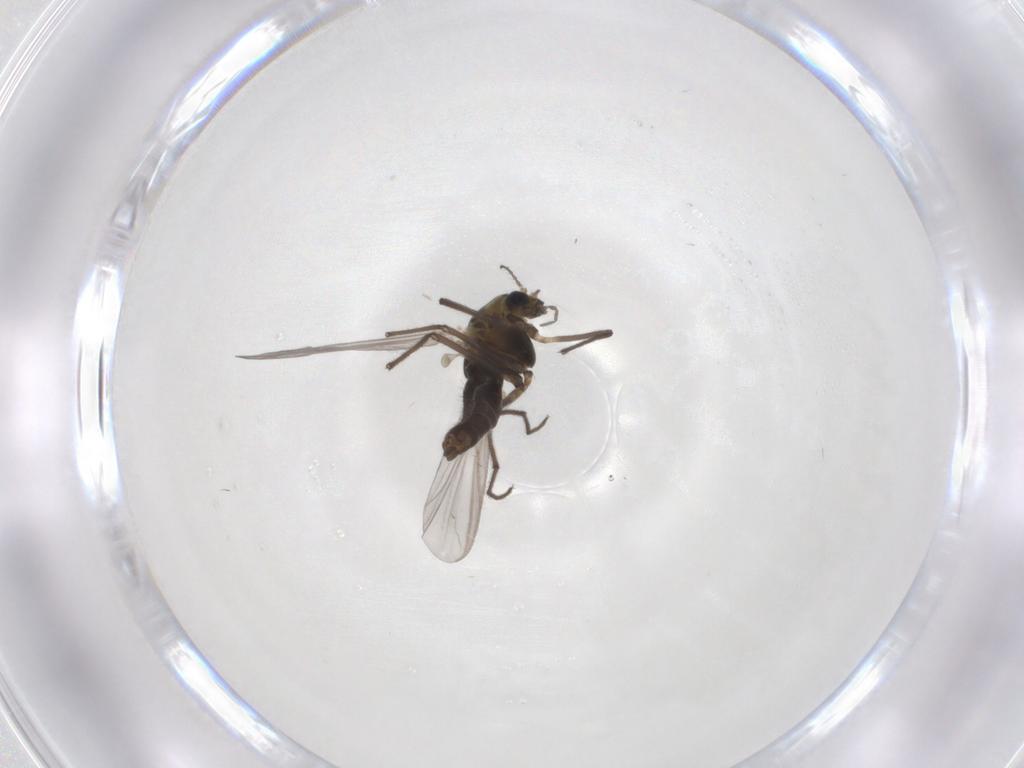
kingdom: Animalia
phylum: Arthropoda
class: Insecta
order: Diptera
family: Chironomidae
